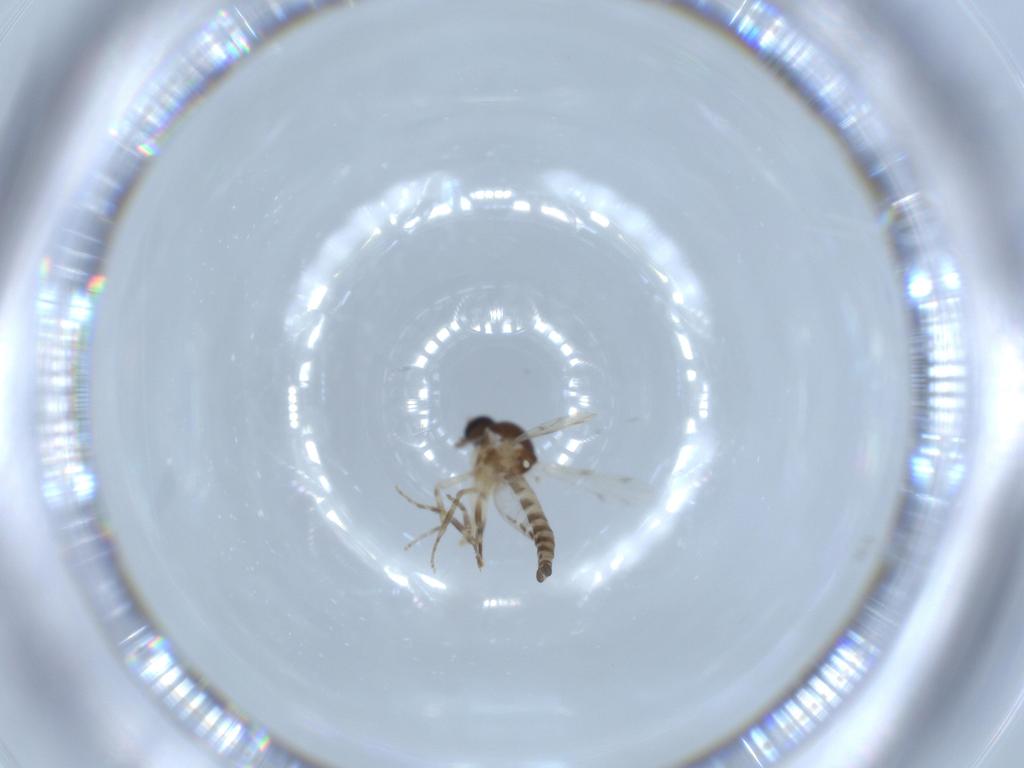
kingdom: Animalia
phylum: Arthropoda
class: Insecta
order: Diptera
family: Ceratopogonidae
